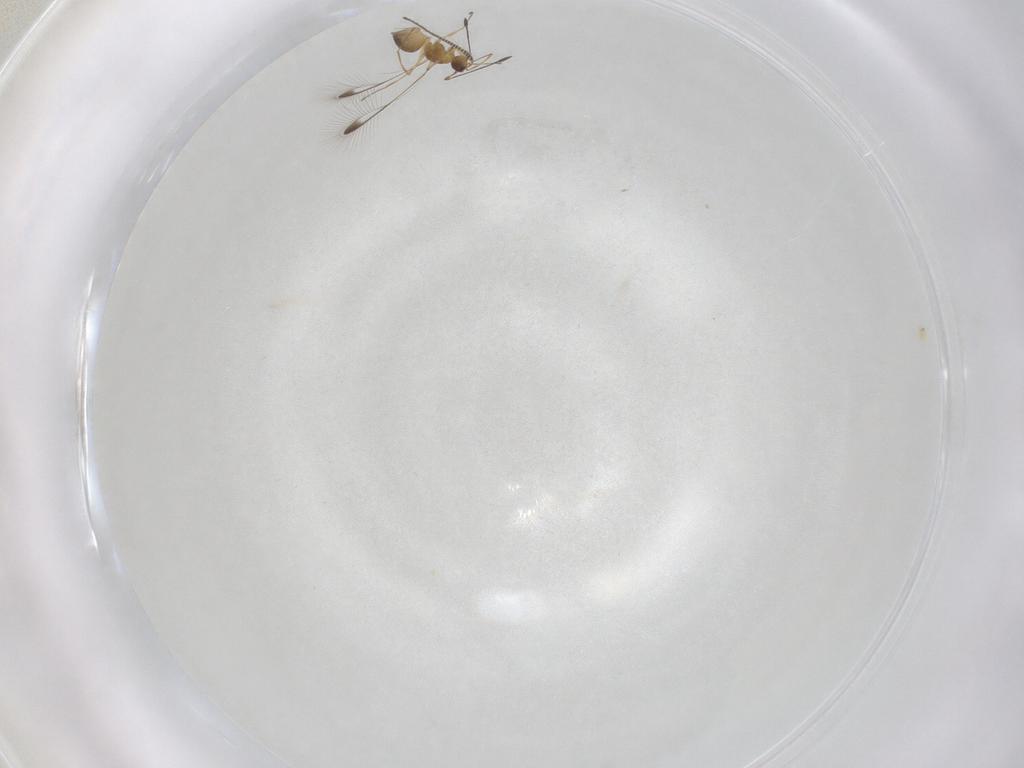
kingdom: Animalia
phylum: Arthropoda
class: Insecta
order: Hymenoptera
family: Mymaridae
